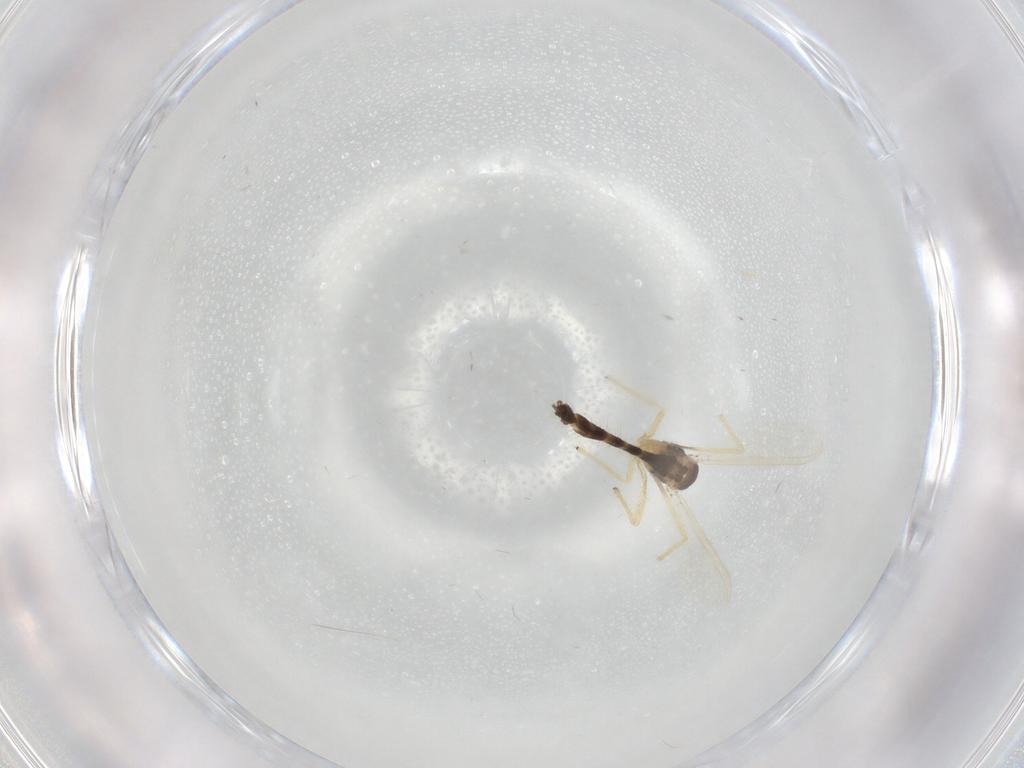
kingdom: Animalia
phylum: Arthropoda
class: Insecta
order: Diptera
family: Chironomidae
